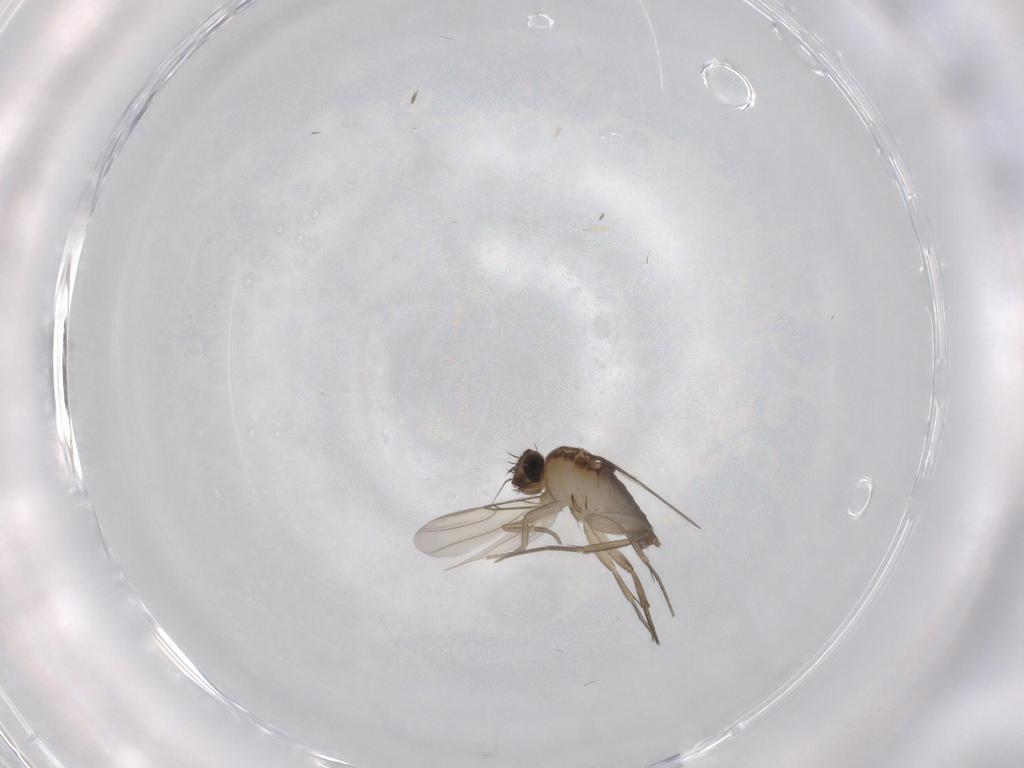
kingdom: Animalia
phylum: Arthropoda
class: Insecta
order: Diptera
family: Phoridae
